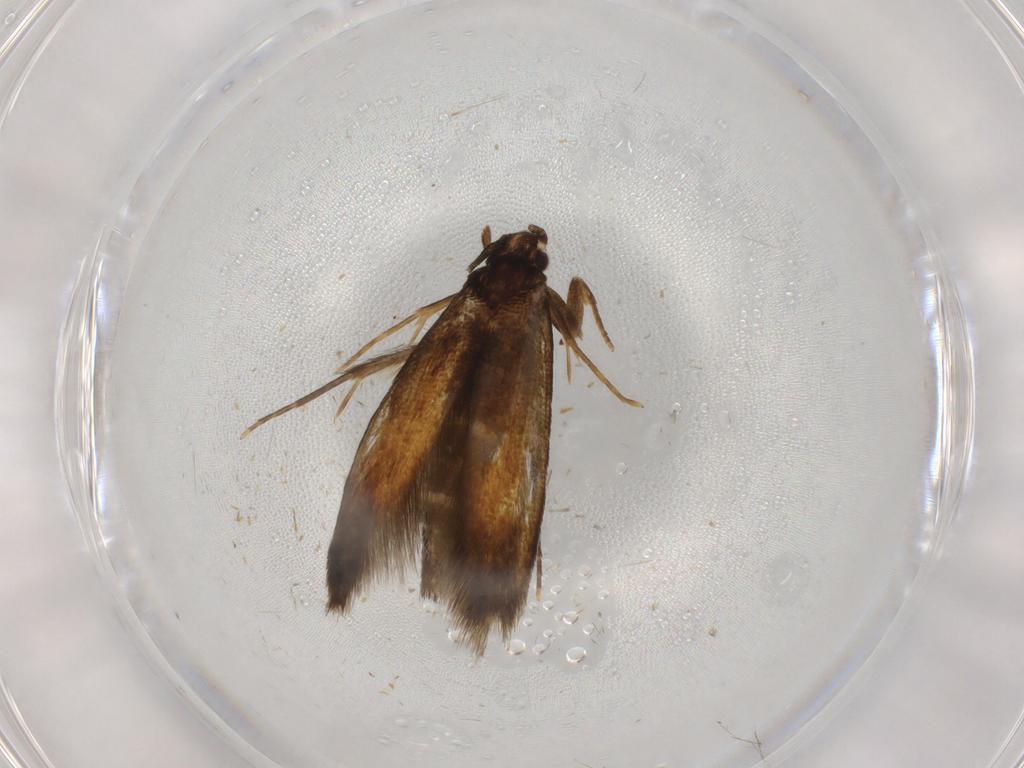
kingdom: Animalia
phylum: Arthropoda
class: Insecta
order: Lepidoptera
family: Tineidae
